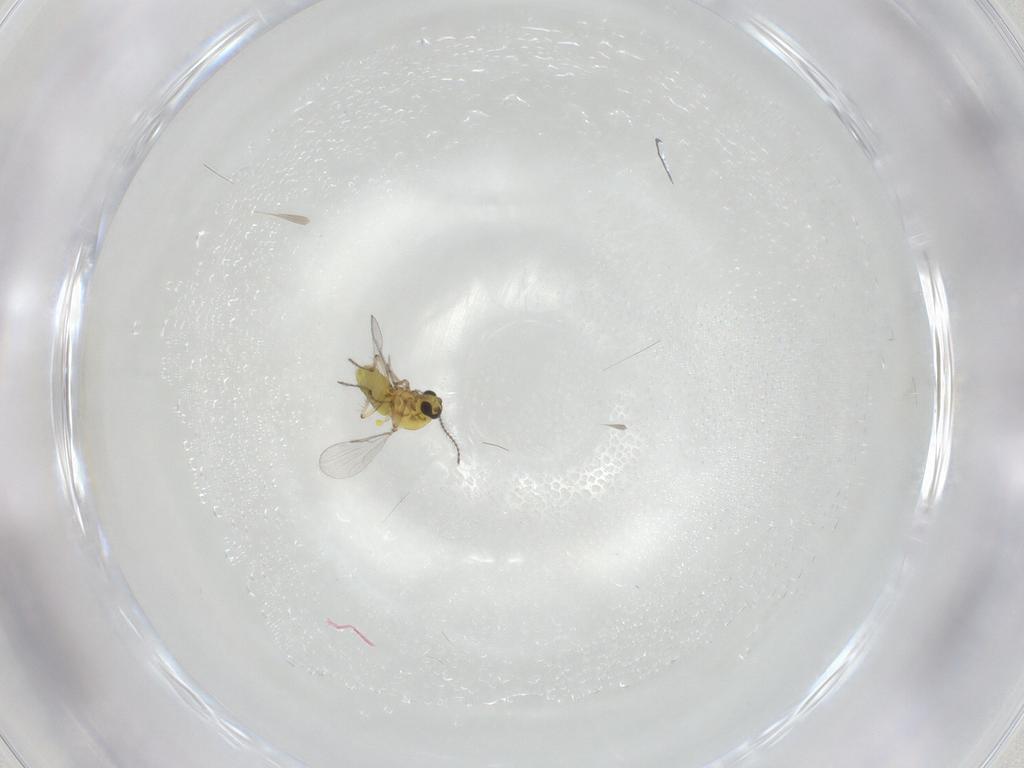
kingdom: Animalia
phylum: Arthropoda
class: Insecta
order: Diptera
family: Ceratopogonidae
